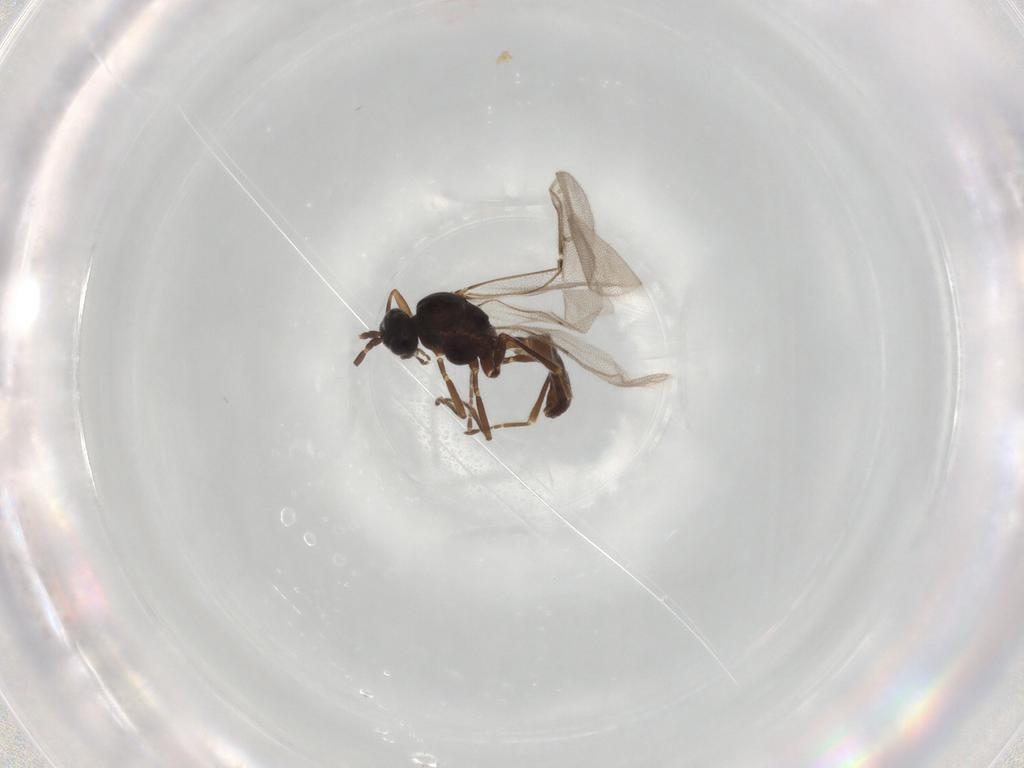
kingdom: Animalia
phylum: Arthropoda
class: Insecta
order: Hymenoptera
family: Braconidae
